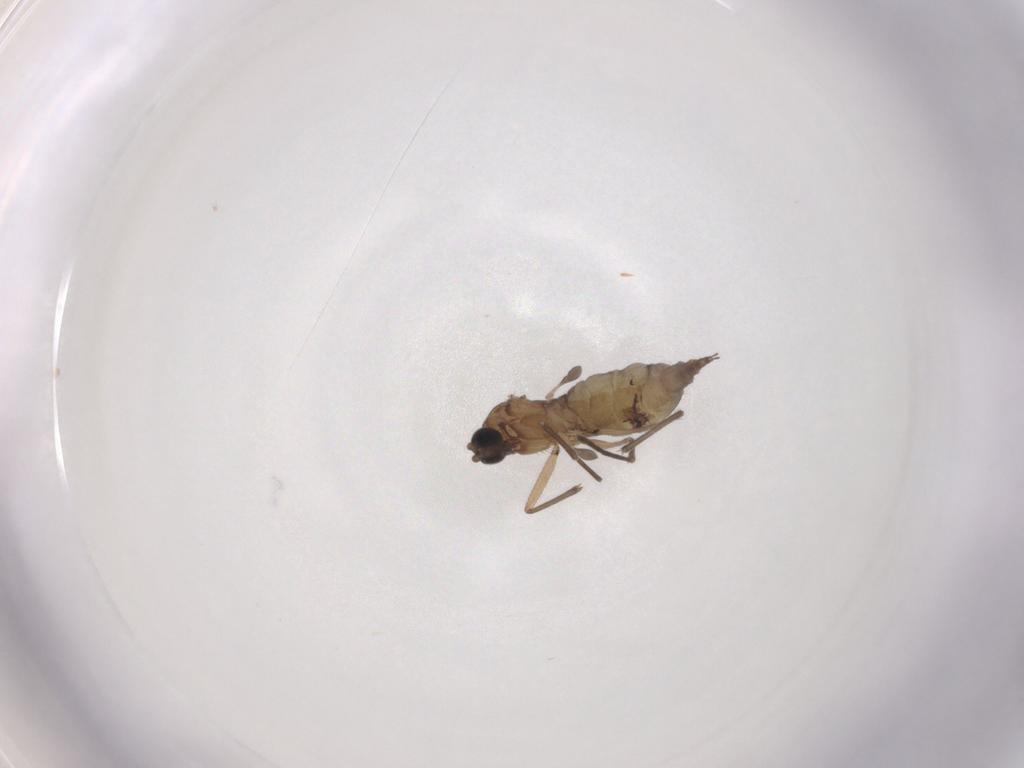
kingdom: Animalia
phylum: Arthropoda
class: Insecta
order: Diptera
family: Sciaridae
